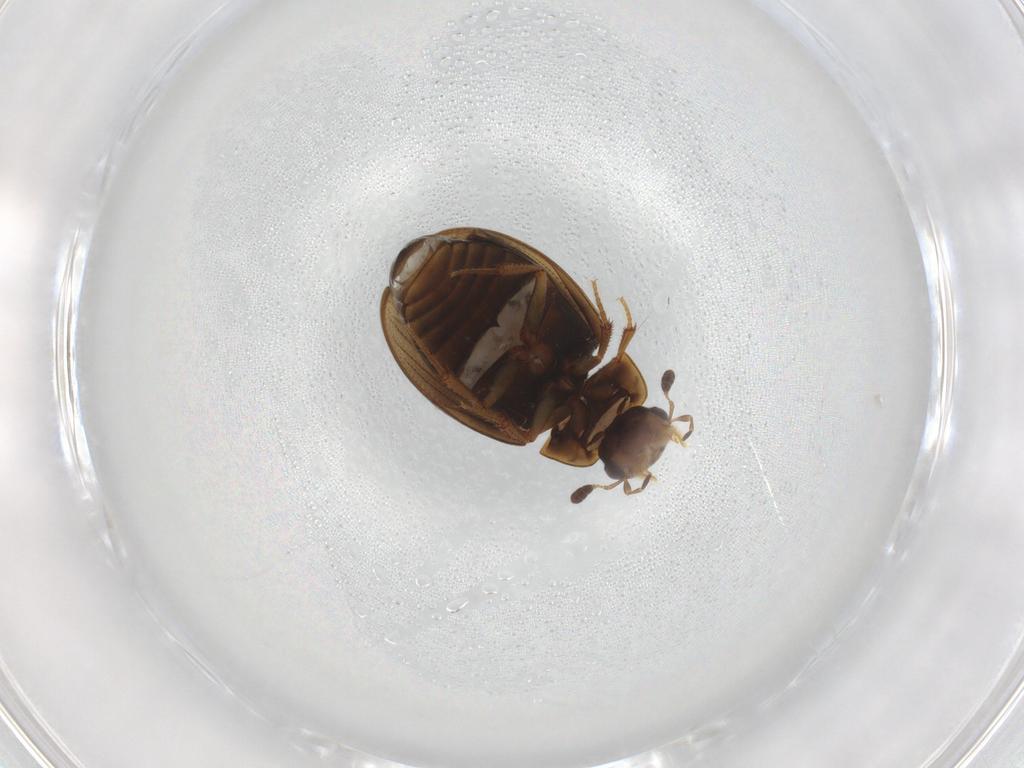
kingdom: Animalia
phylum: Arthropoda
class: Insecta
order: Coleoptera
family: Hydrophilidae
